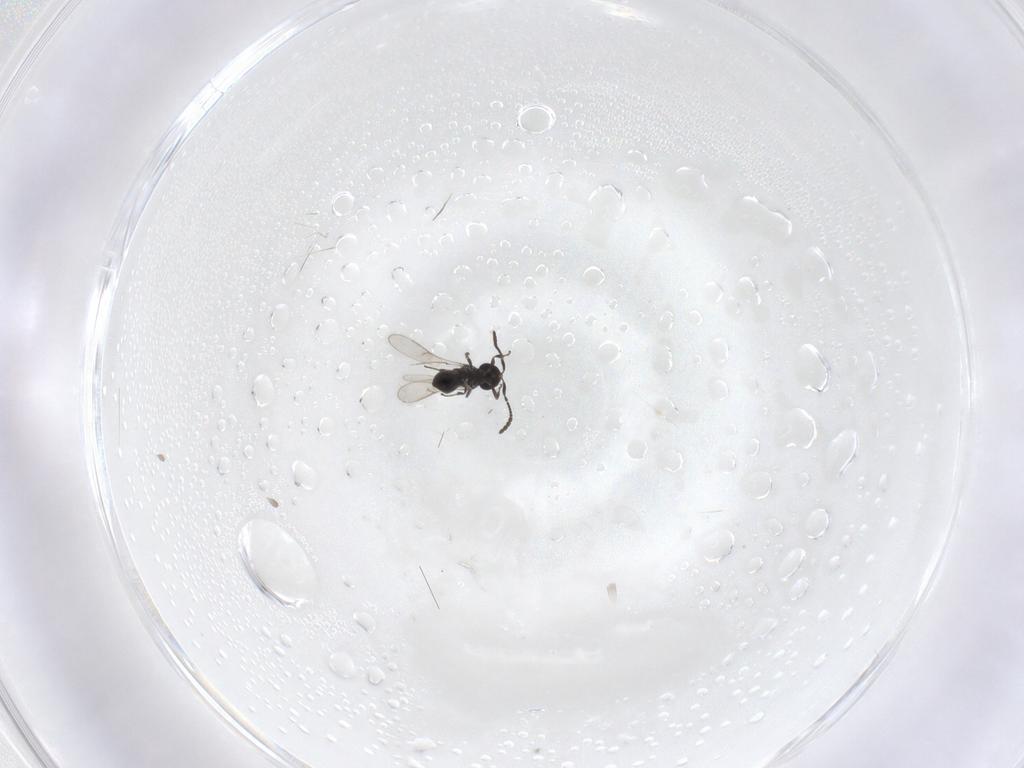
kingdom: Animalia
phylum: Arthropoda
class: Insecta
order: Hymenoptera
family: Scelionidae
